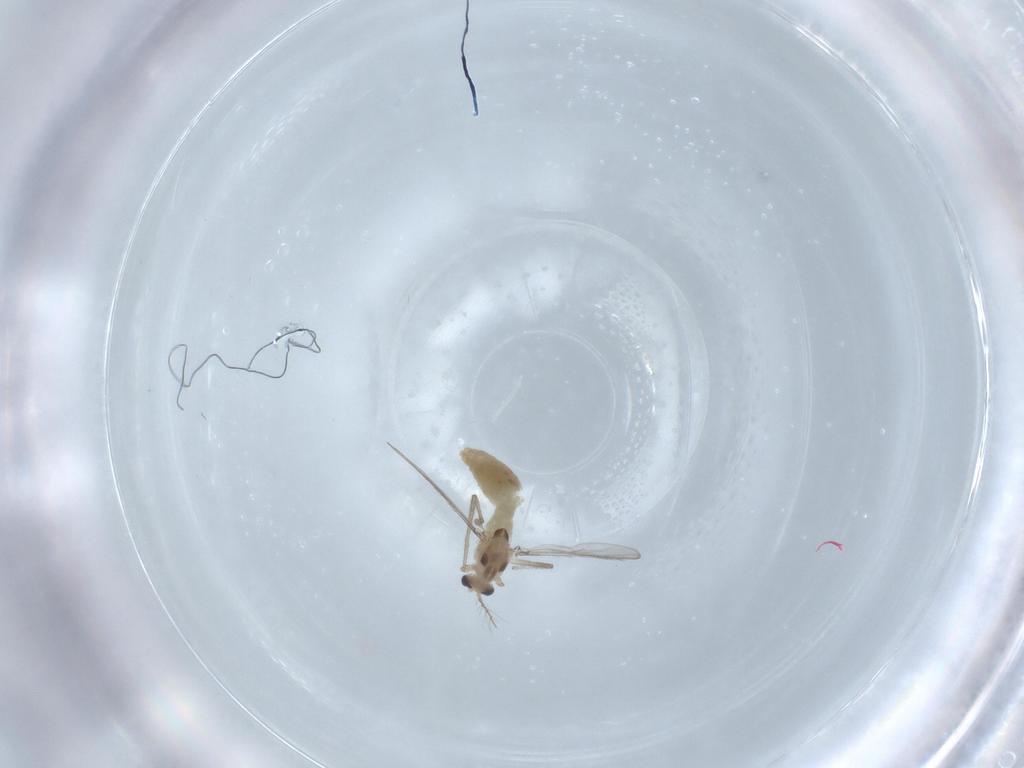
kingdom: Animalia
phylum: Arthropoda
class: Insecta
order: Diptera
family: Chironomidae
